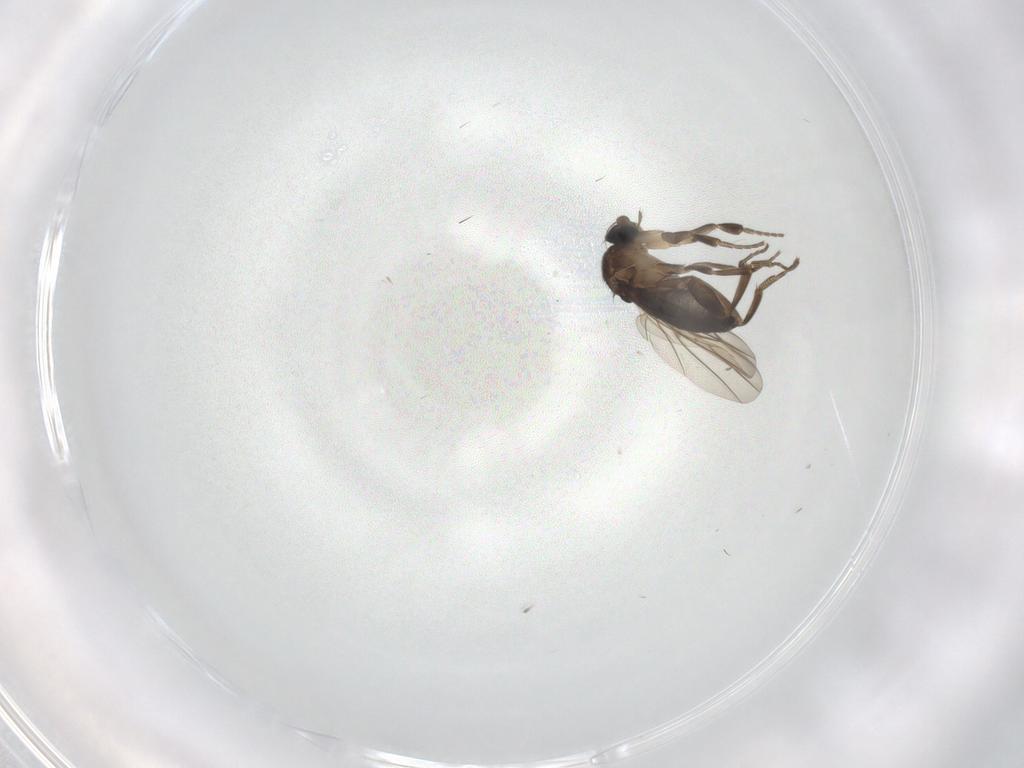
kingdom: Animalia
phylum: Arthropoda
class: Insecta
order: Diptera
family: Phoridae
